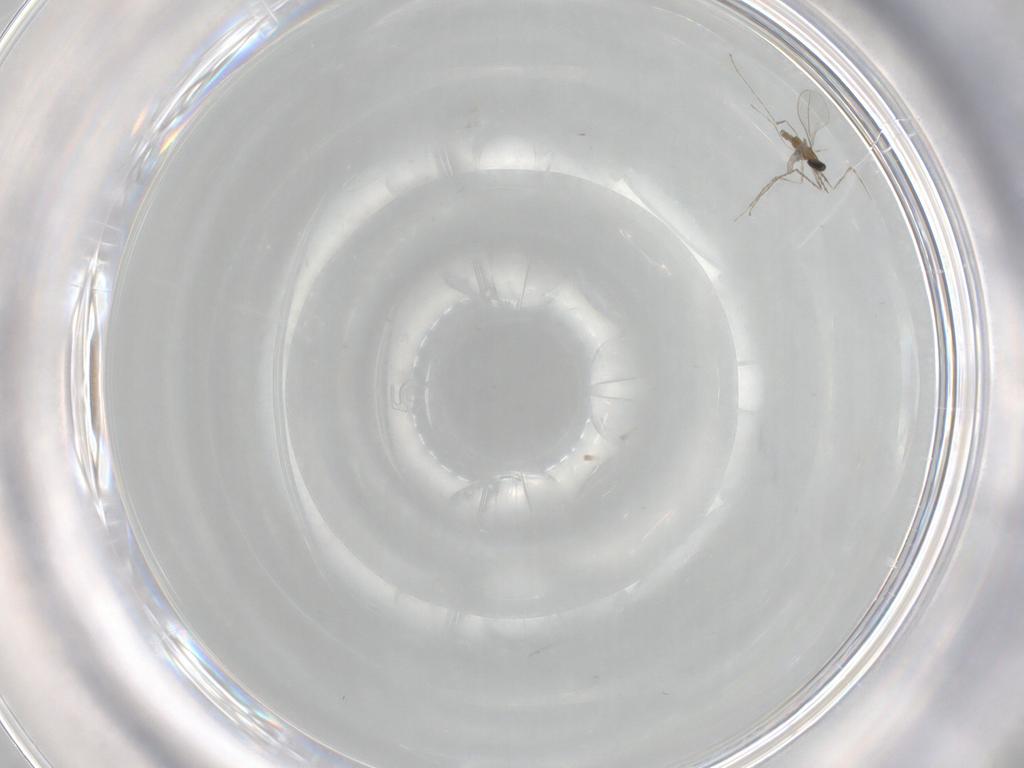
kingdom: Animalia
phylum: Arthropoda
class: Insecta
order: Diptera
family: Cecidomyiidae
